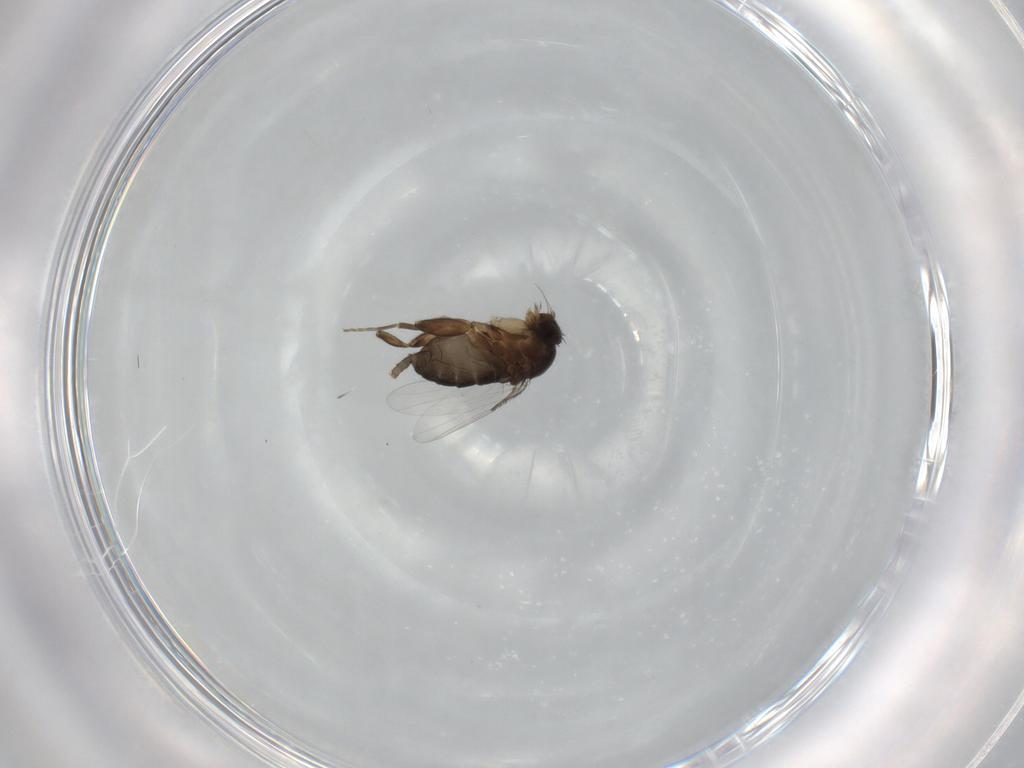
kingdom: Animalia
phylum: Arthropoda
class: Insecta
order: Diptera
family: Phoridae
